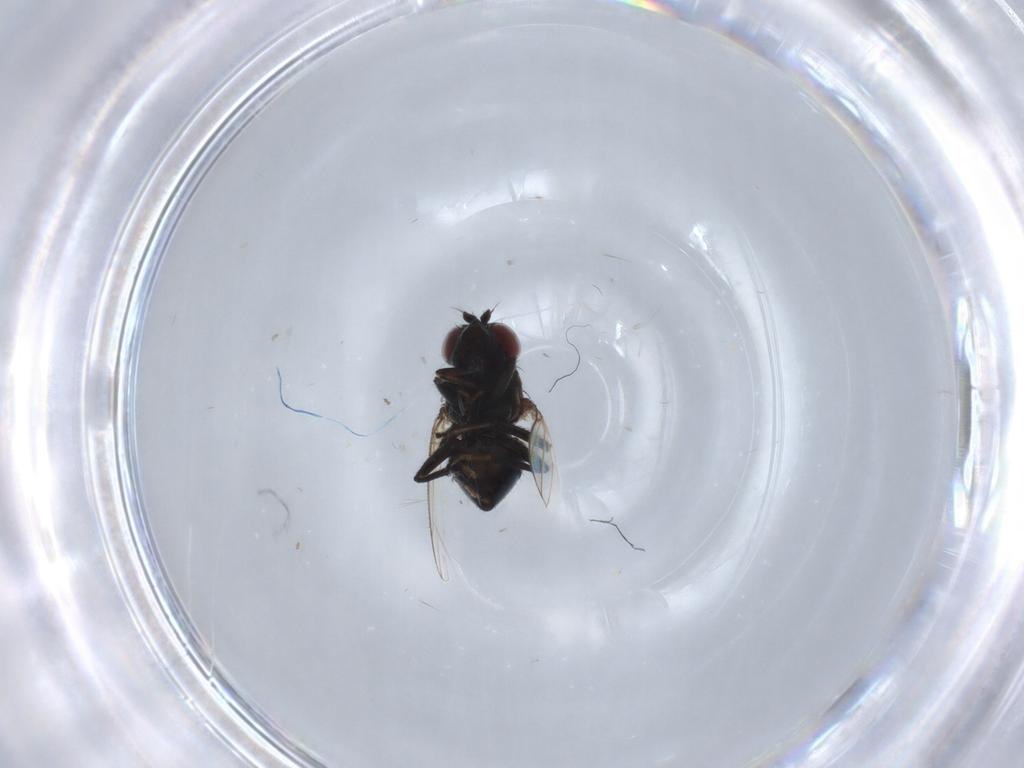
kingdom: Animalia
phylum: Arthropoda
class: Insecta
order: Diptera
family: Ephydridae
